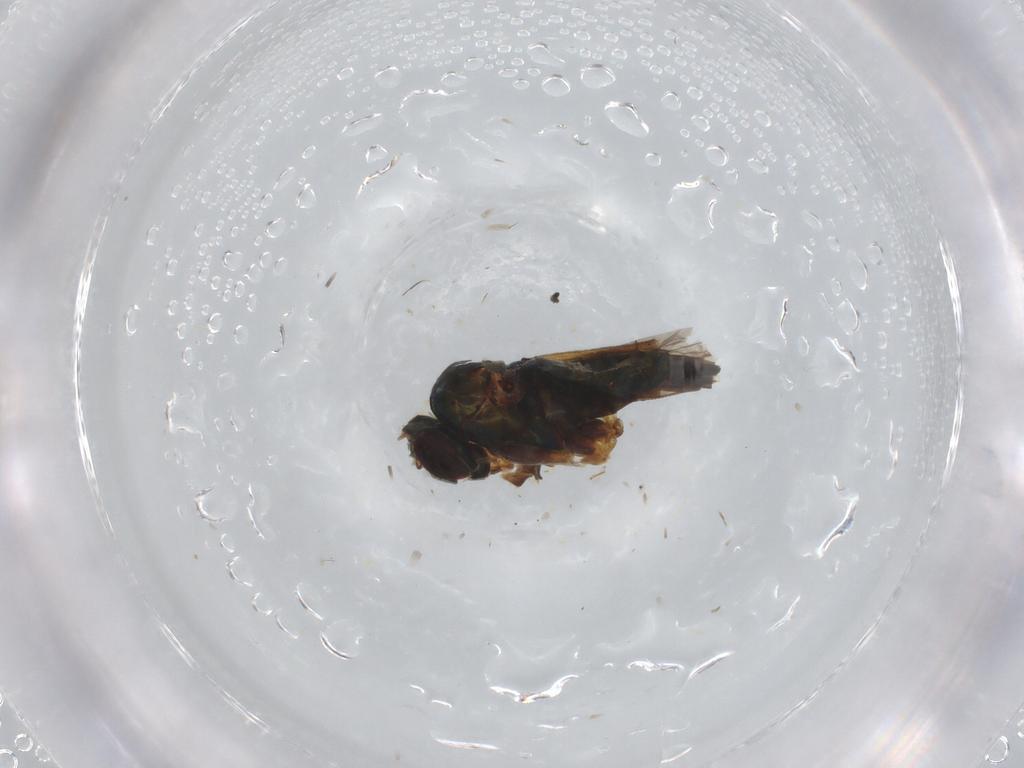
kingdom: Animalia
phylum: Arthropoda
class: Insecta
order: Diptera
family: Dolichopodidae
